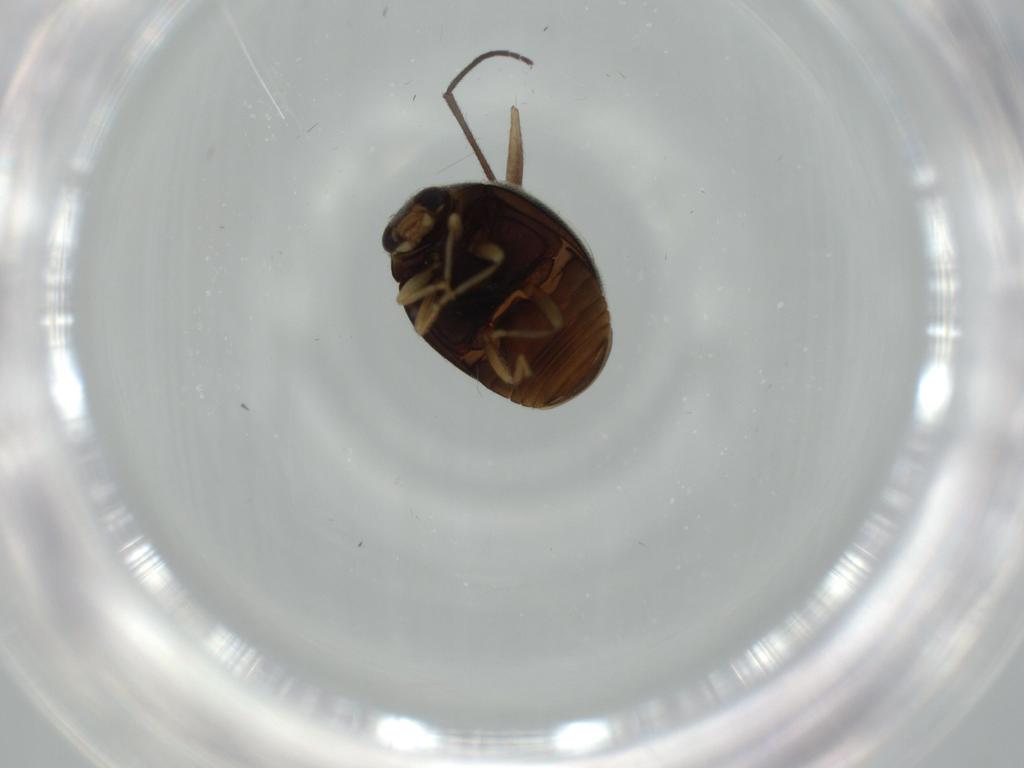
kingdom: Animalia
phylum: Arthropoda
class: Insecta
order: Coleoptera
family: Coccinellidae
